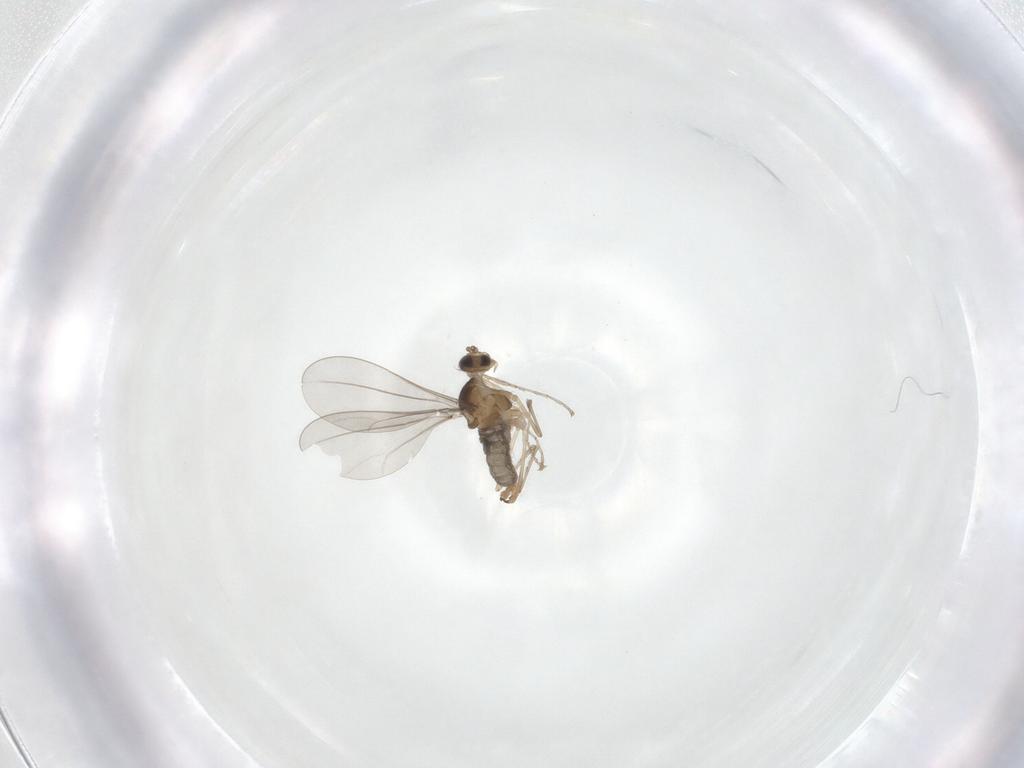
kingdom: Animalia
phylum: Arthropoda
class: Insecta
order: Diptera
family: Cecidomyiidae
